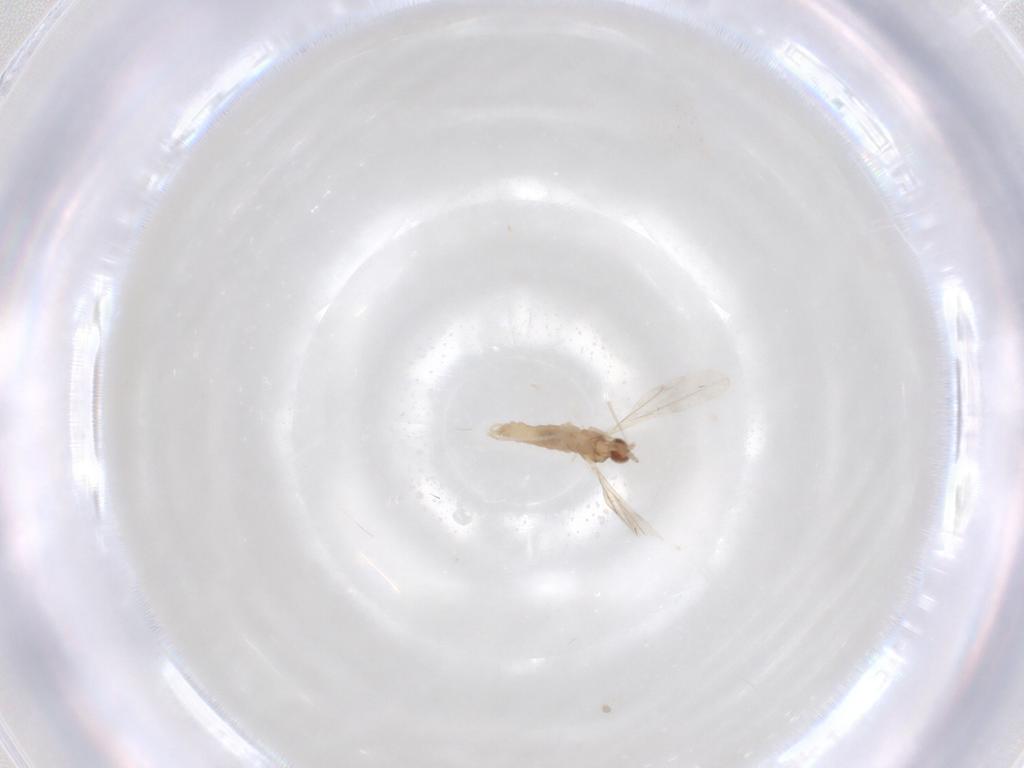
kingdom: Animalia
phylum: Arthropoda
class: Insecta
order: Diptera
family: Cecidomyiidae
